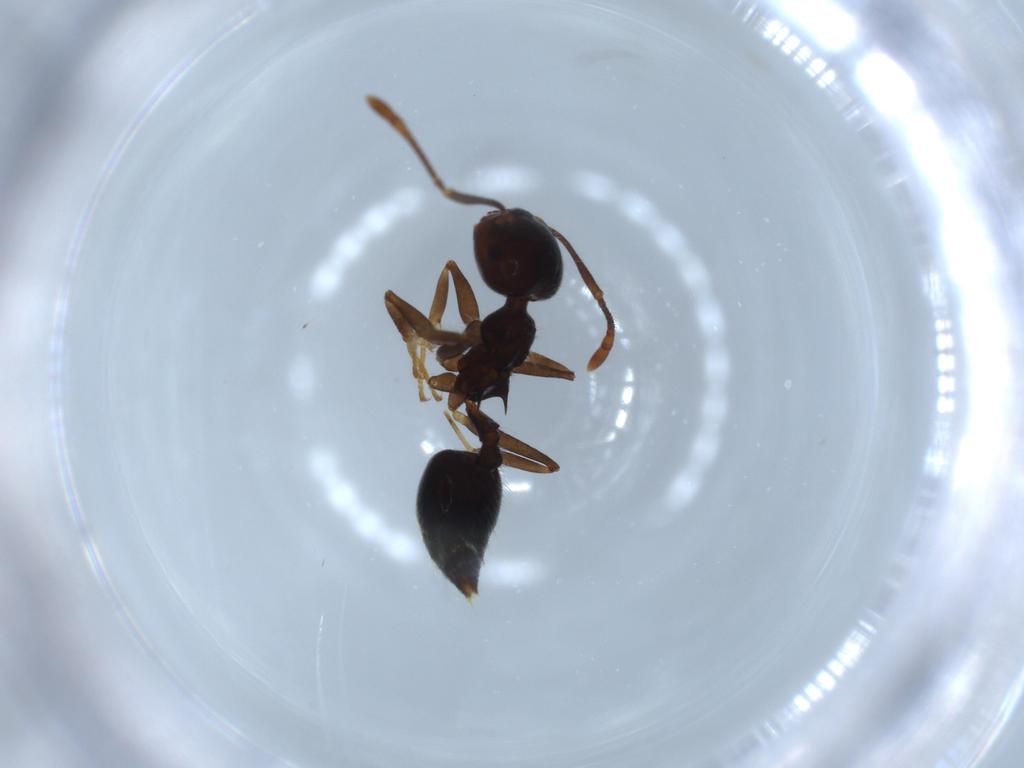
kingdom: Animalia
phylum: Arthropoda
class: Insecta
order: Hymenoptera
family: Formicidae
